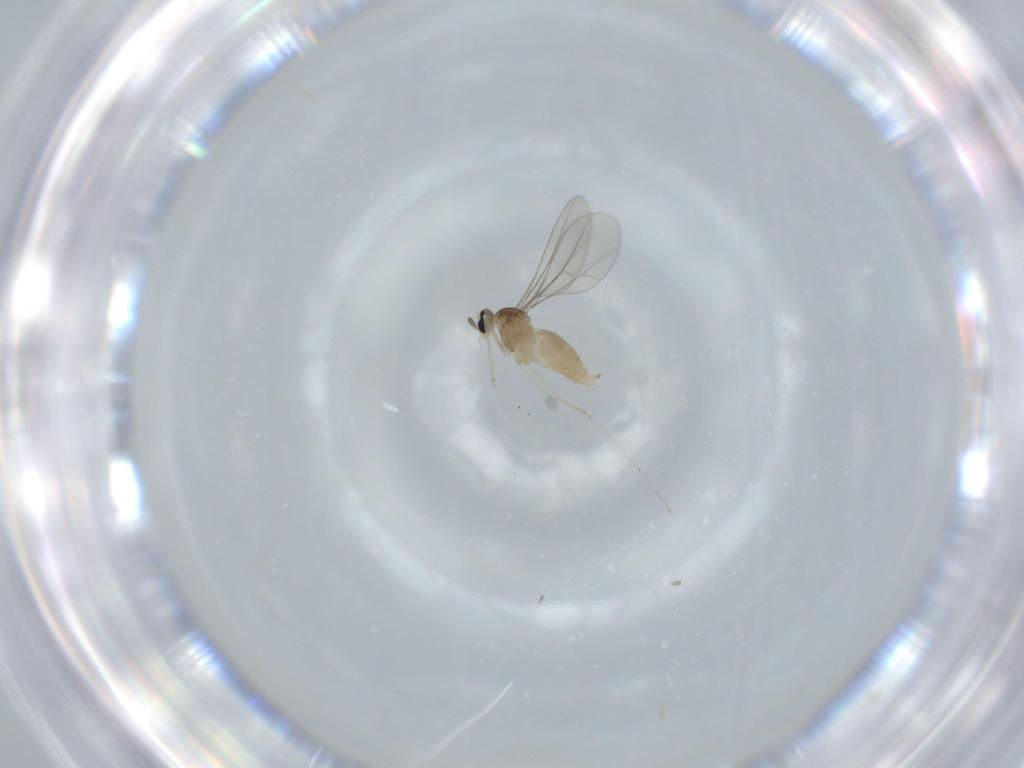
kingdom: Animalia
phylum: Arthropoda
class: Insecta
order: Diptera
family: Cecidomyiidae
